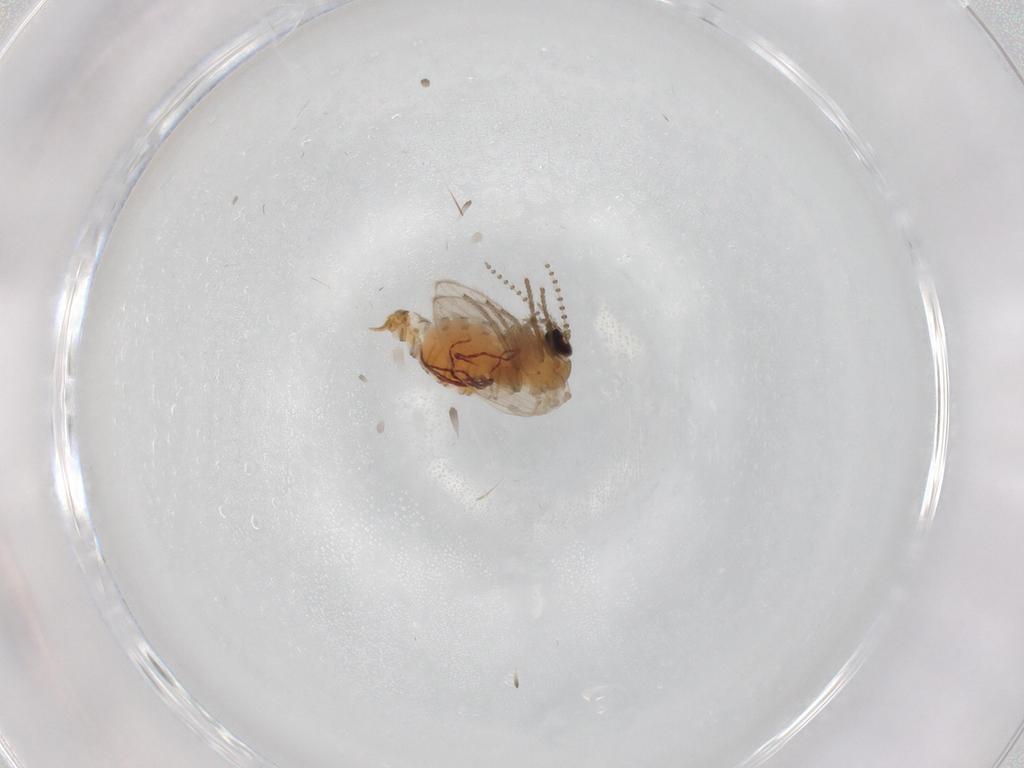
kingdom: Animalia
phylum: Arthropoda
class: Insecta
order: Diptera
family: Psychodidae
